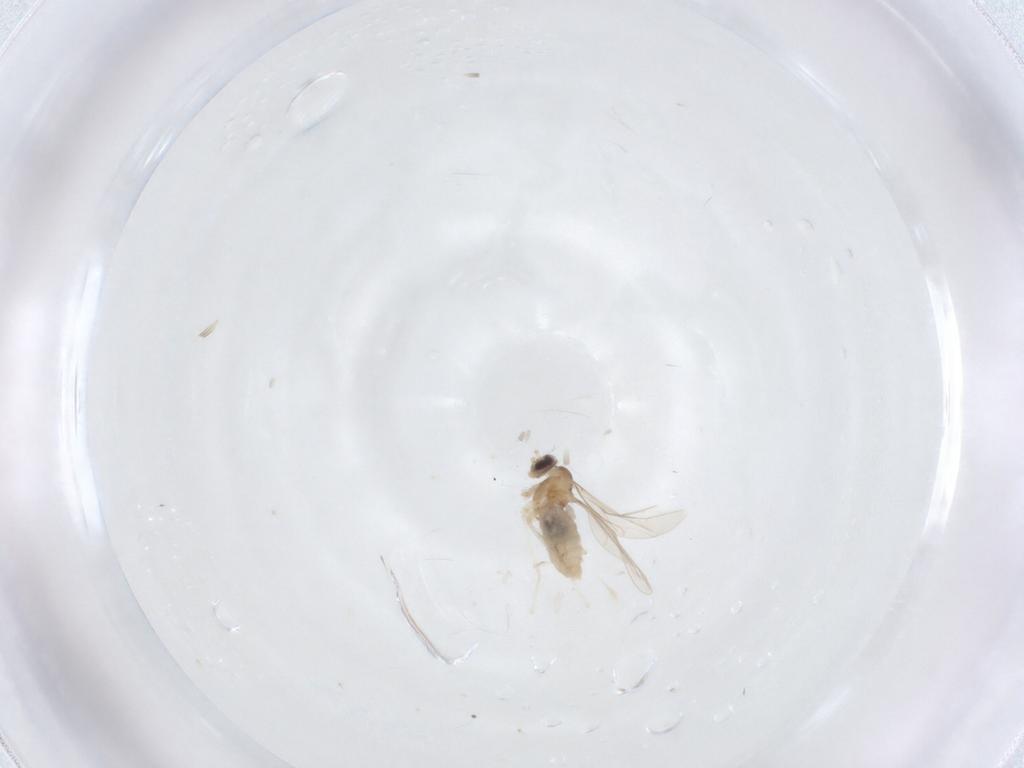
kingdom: Animalia
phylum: Arthropoda
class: Insecta
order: Diptera
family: Cecidomyiidae
